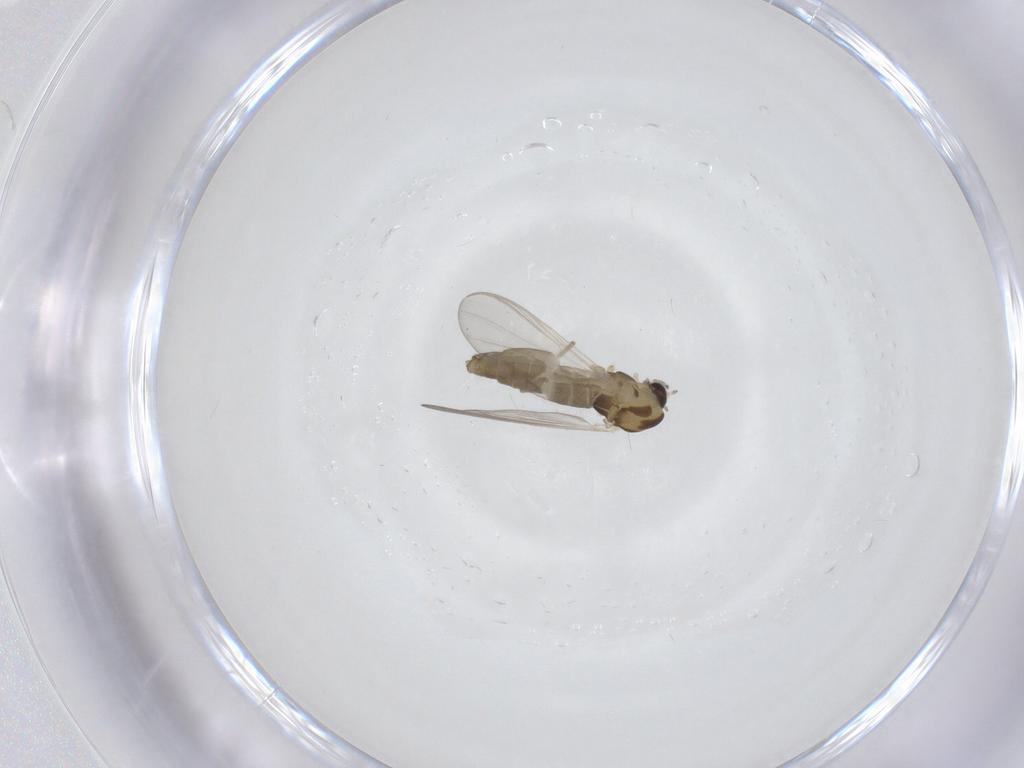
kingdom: Animalia
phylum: Arthropoda
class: Insecta
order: Diptera
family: Chironomidae
